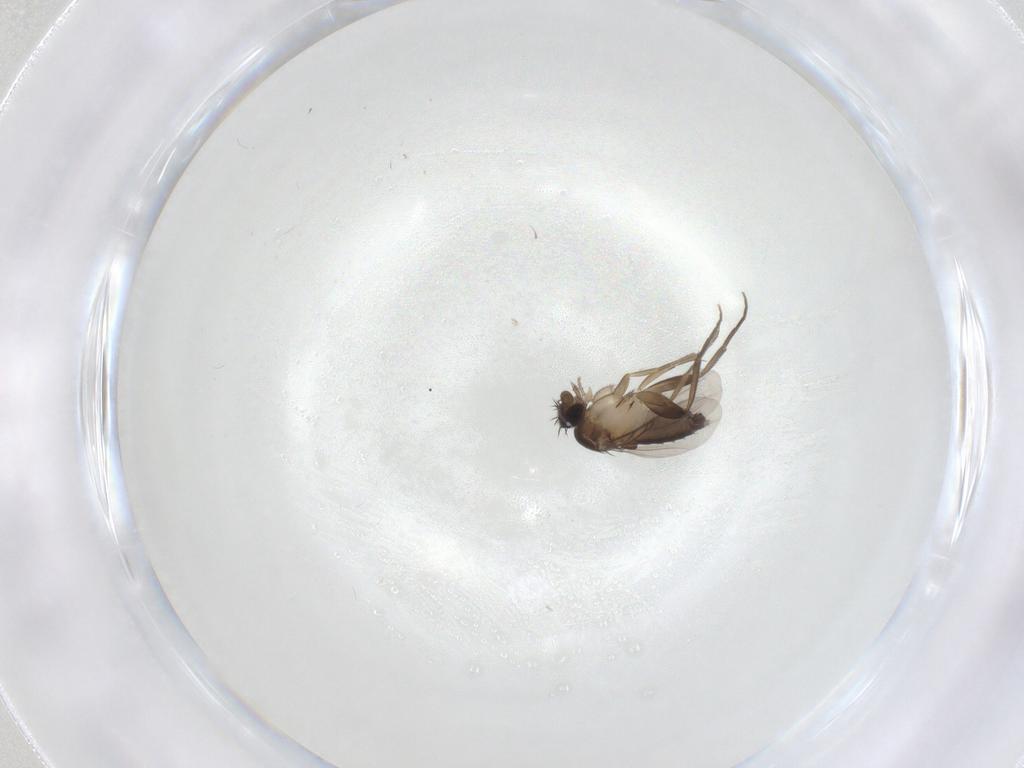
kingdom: Animalia
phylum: Arthropoda
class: Insecta
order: Diptera
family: Phoridae
